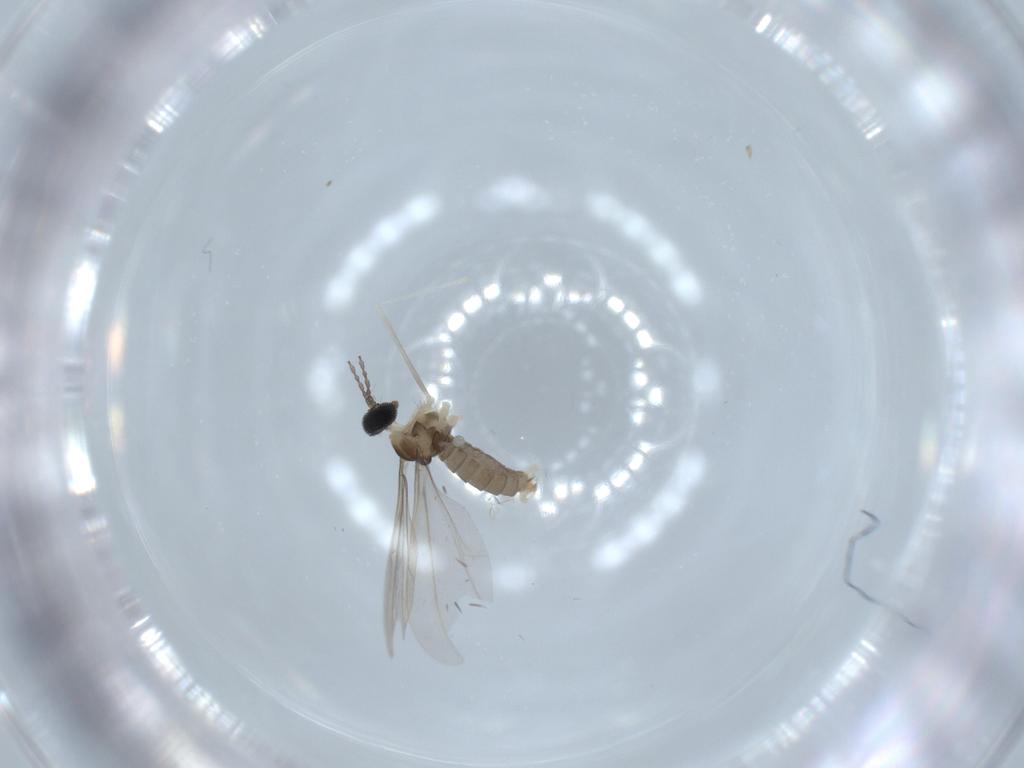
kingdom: Animalia
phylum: Arthropoda
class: Insecta
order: Diptera
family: Cecidomyiidae
